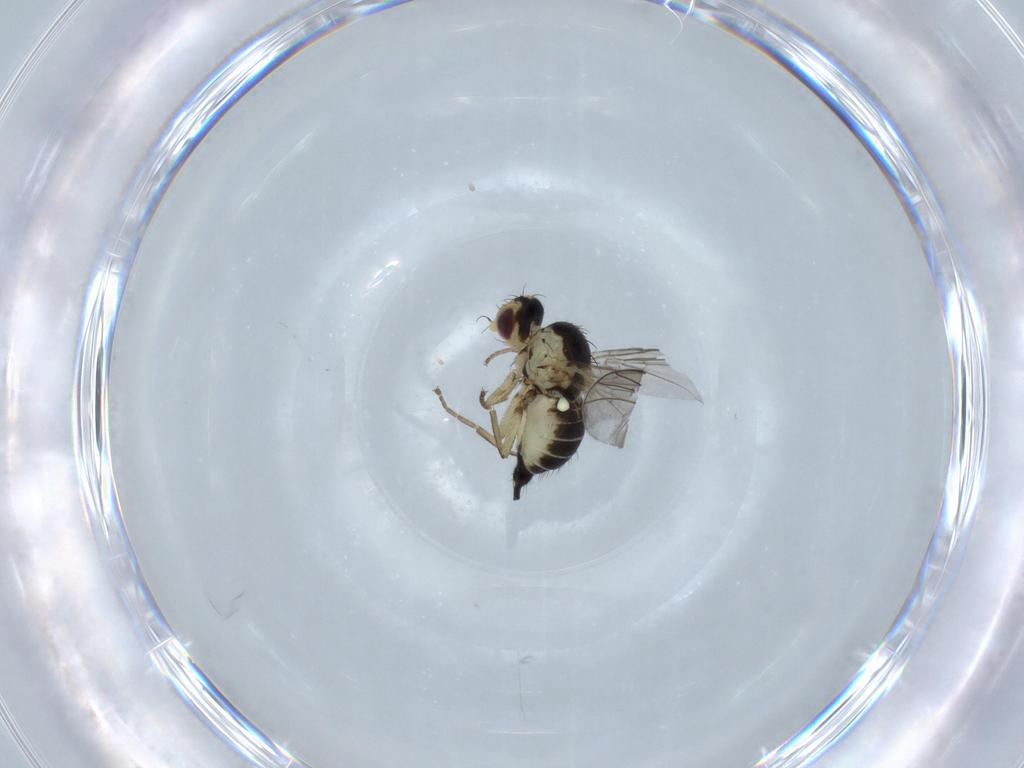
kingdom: Animalia
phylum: Arthropoda
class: Insecta
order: Diptera
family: Agromyzidae
